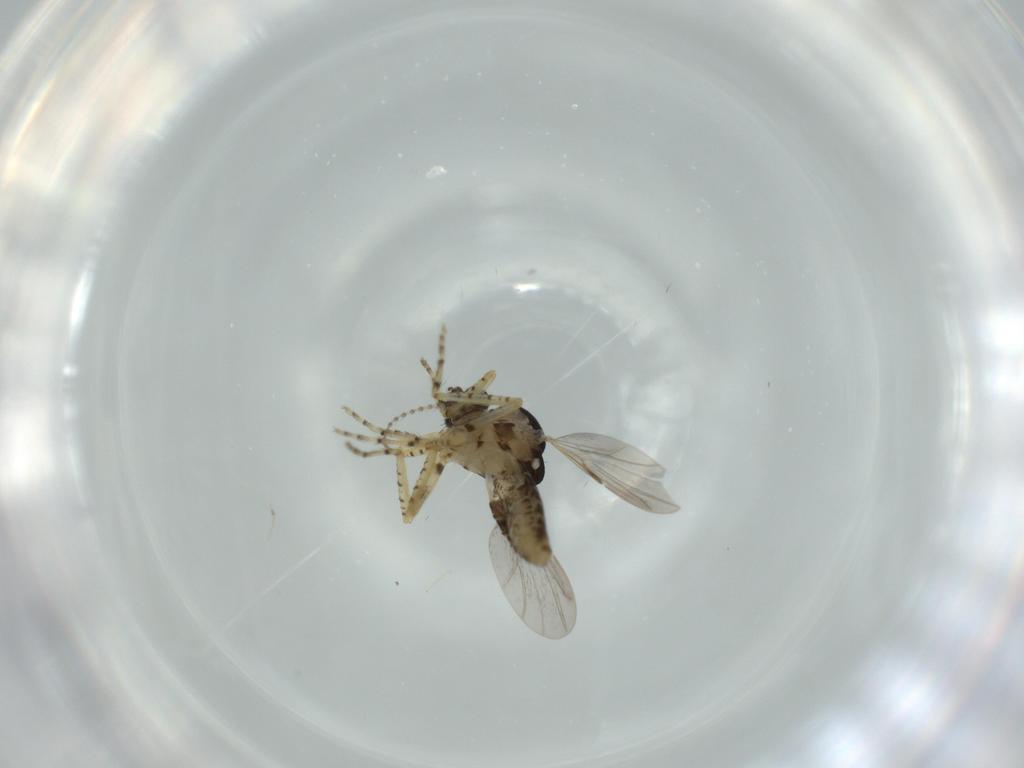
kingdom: Animalia
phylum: Arthropoda
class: Insecta
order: Diptera
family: Ceratopogonidae
